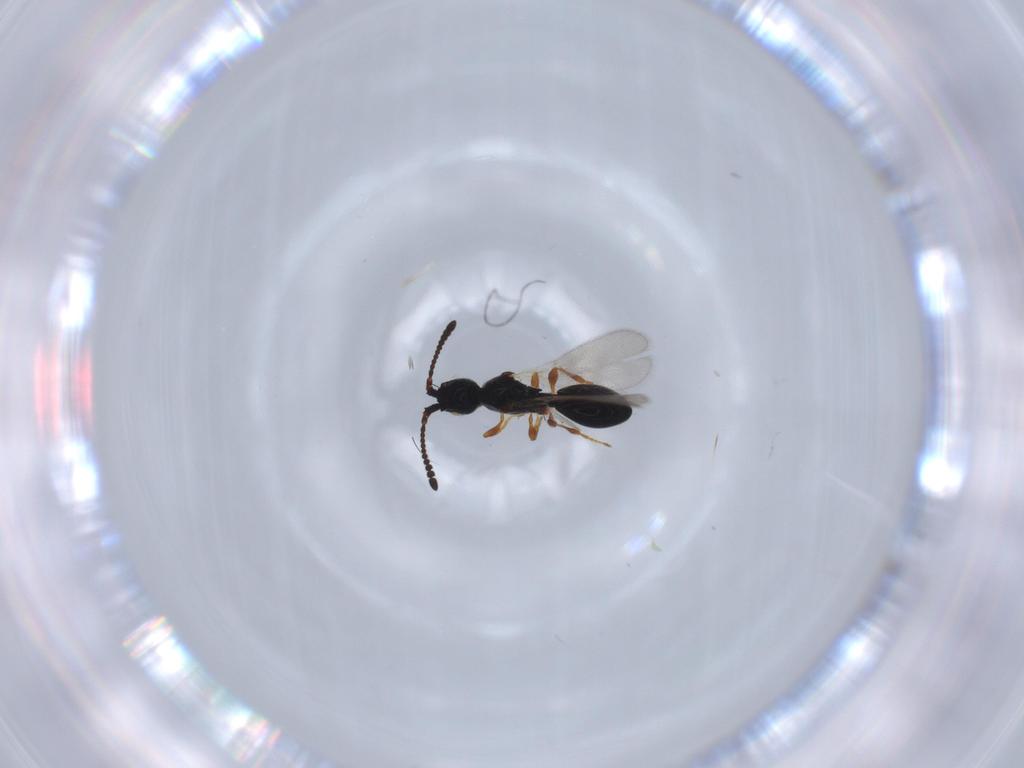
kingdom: Animalia
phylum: Arthropoda
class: Insecta
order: Hymenoptera
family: Diapriidae
